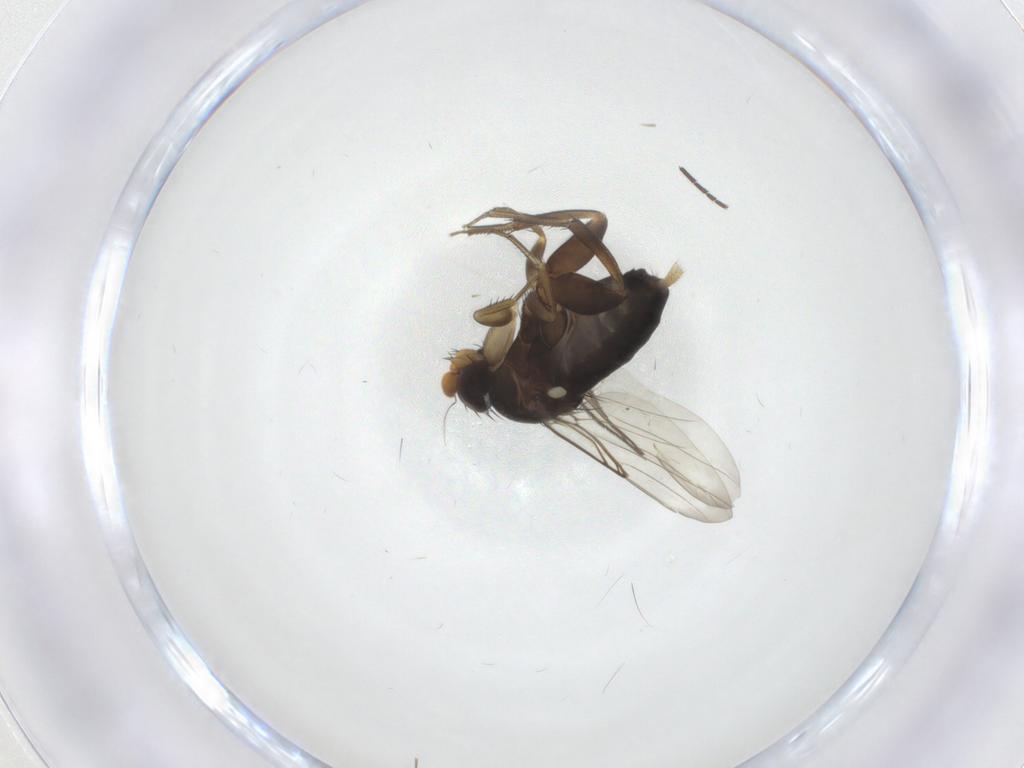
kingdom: Animalia
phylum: Arthropoda
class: Insecta
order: Diptera
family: Phoridae
